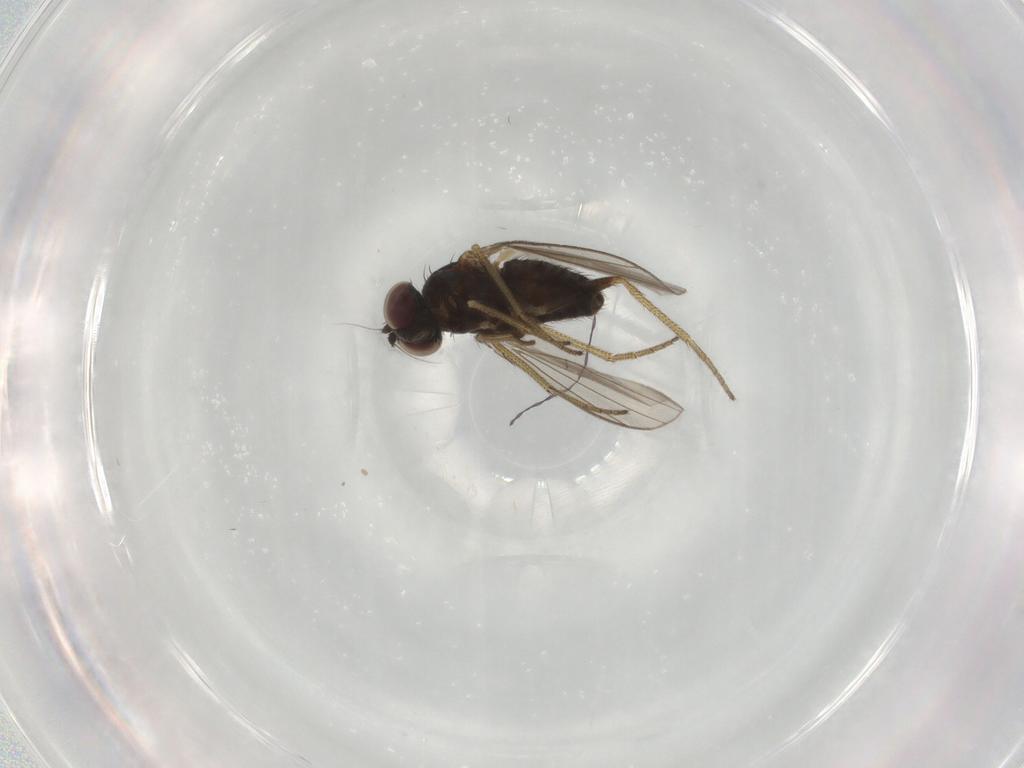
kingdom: Animalia
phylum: Arthropoda
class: Insecta
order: Diptera
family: Dolichopodidae
